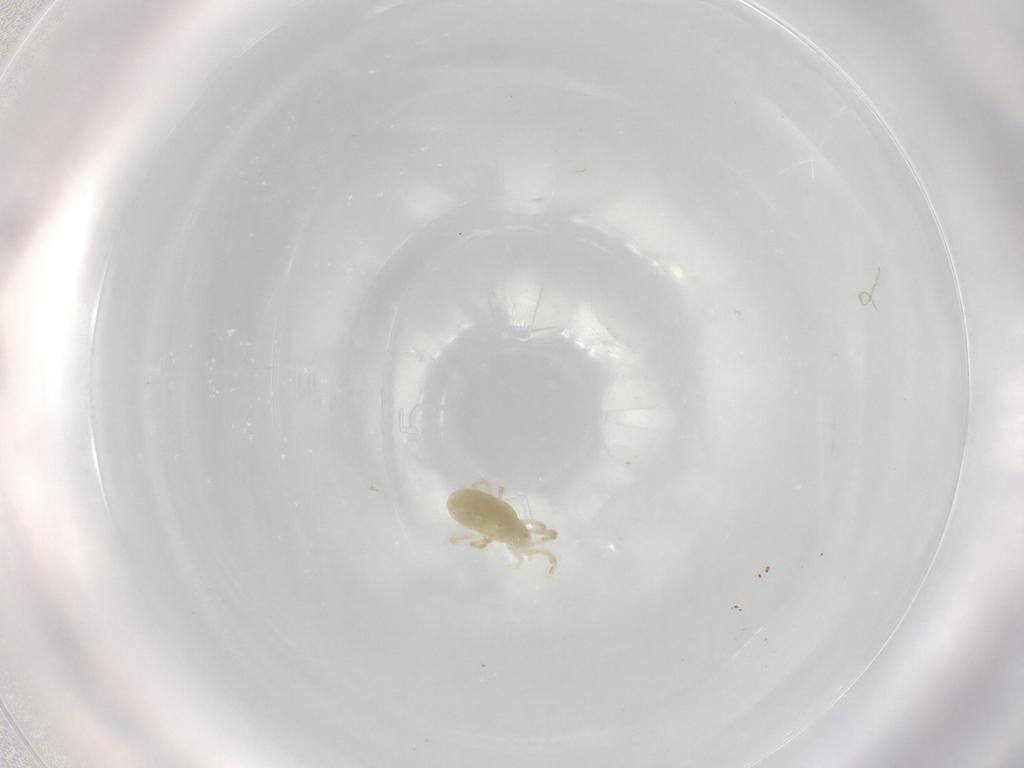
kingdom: Animalia
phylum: Arthropoda
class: Arachnida
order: Trombidiformes
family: Rhagidiidae
